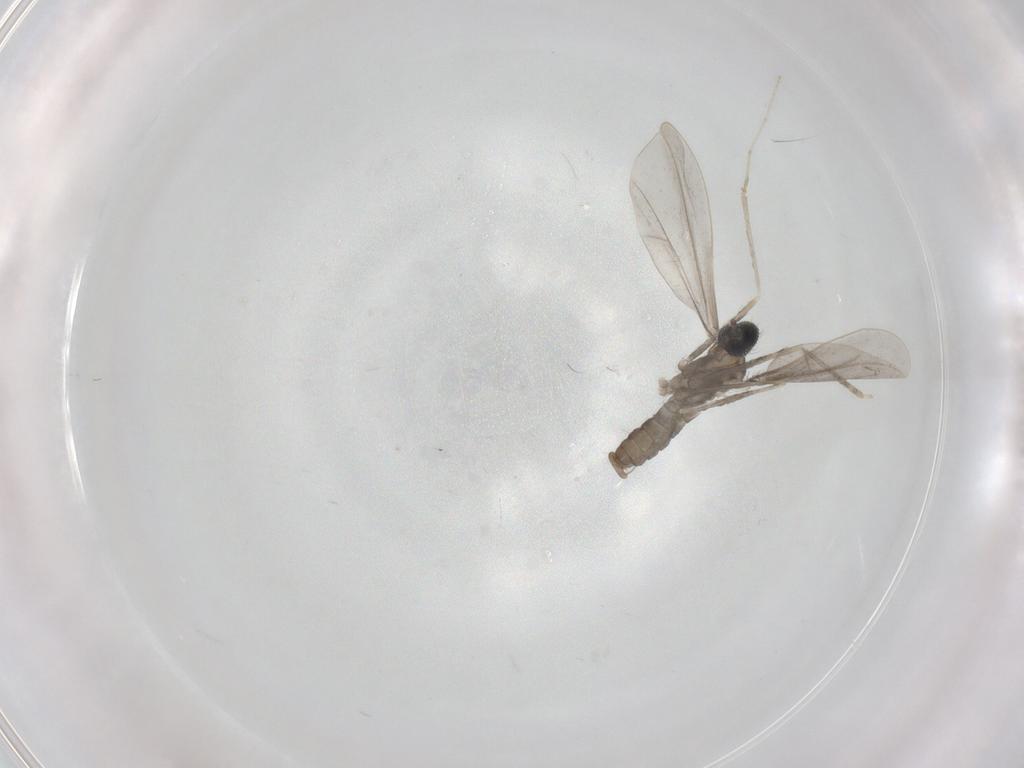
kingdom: Animalia
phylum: Arthropoda
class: Insecta
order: Diptera
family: Cecidomyiidae
